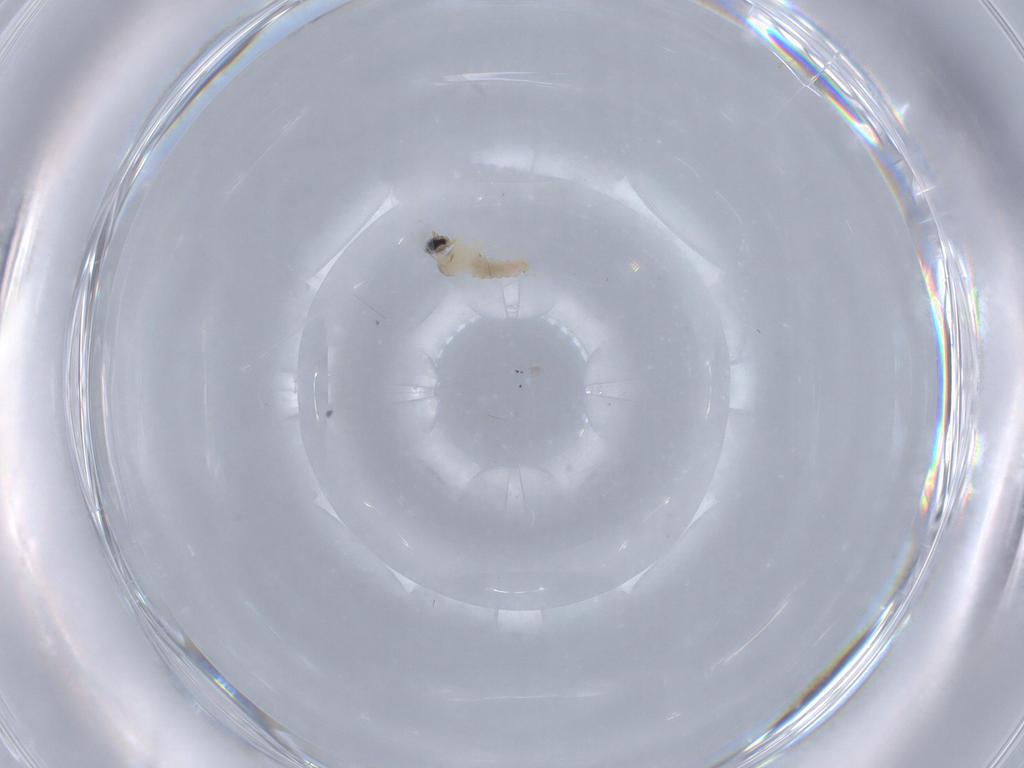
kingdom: Animalia
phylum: Arthropoda
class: Insecta
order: Diptera
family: Cecidomyiidae
